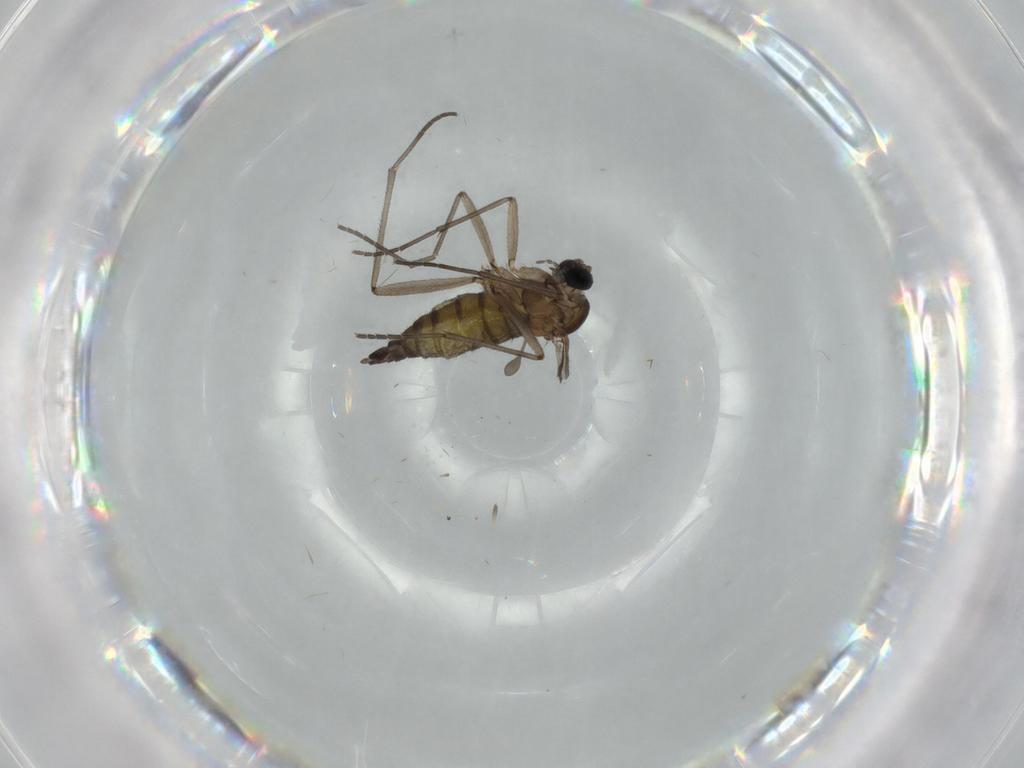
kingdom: Animalia
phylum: Arthropoda
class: Insecta
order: Diptera
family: Sciaridae
